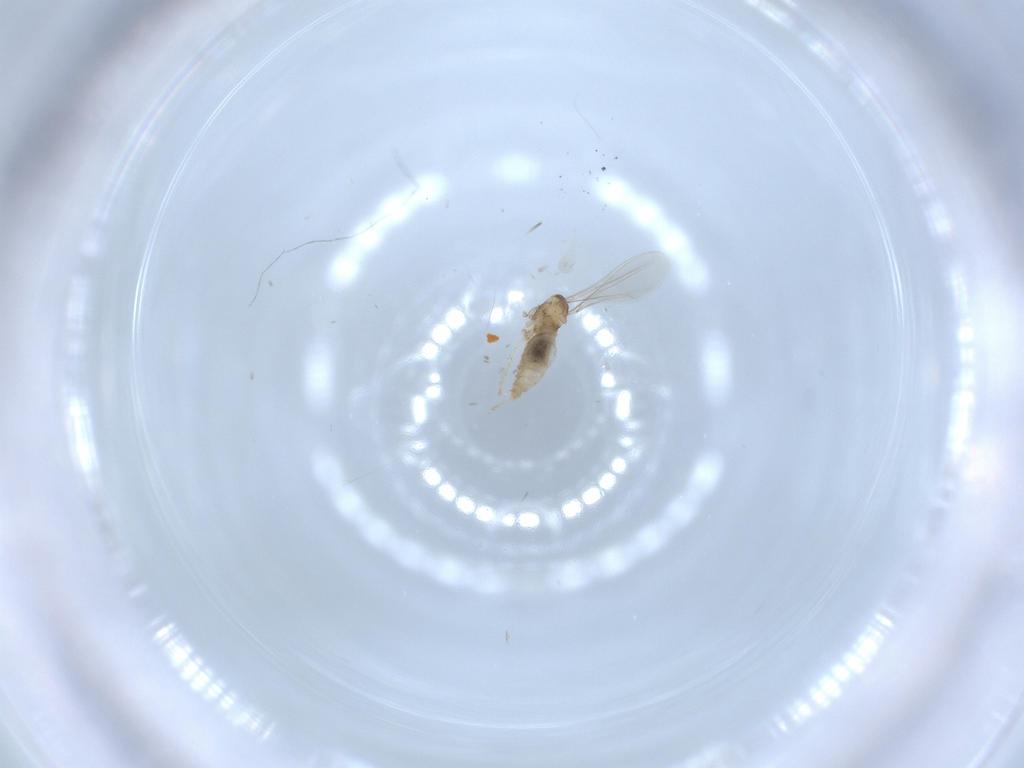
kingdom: Animalia
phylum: Arthropoda
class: Insecta
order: Diptera
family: Cecidomyiidae
